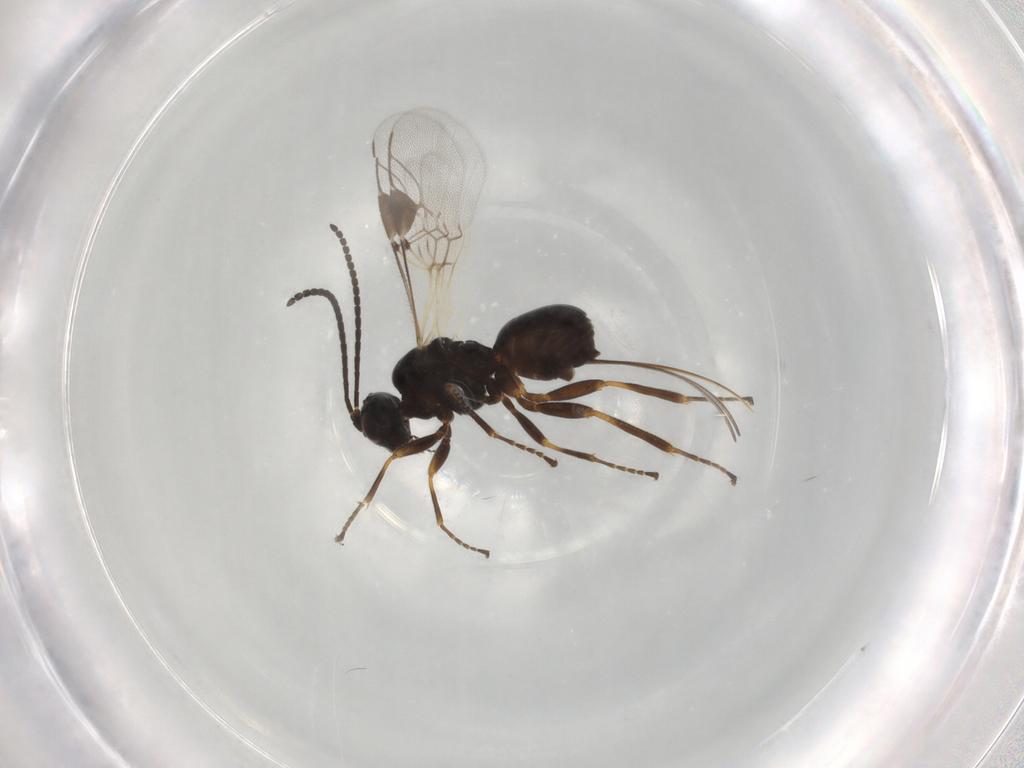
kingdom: Animalia
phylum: Arthropoda
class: Insecta
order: Hymenoptera
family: Braconidae
